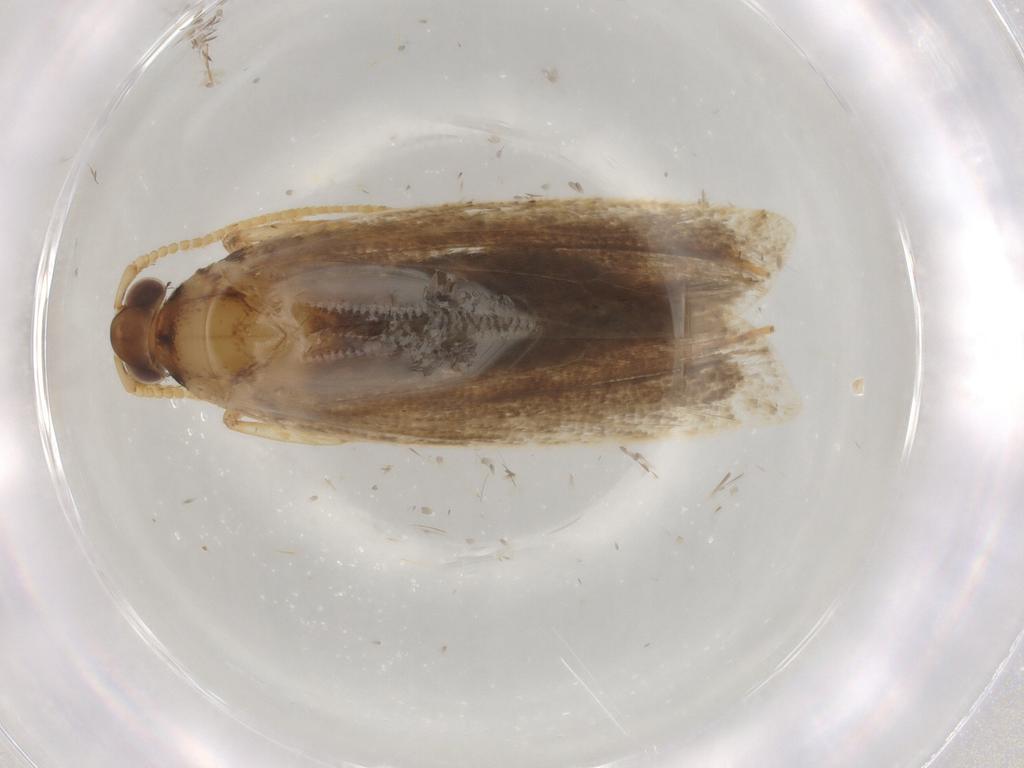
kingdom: Animalia
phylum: Arthropoda
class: Insecta
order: Lepidoptera
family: Lecithoceridae
